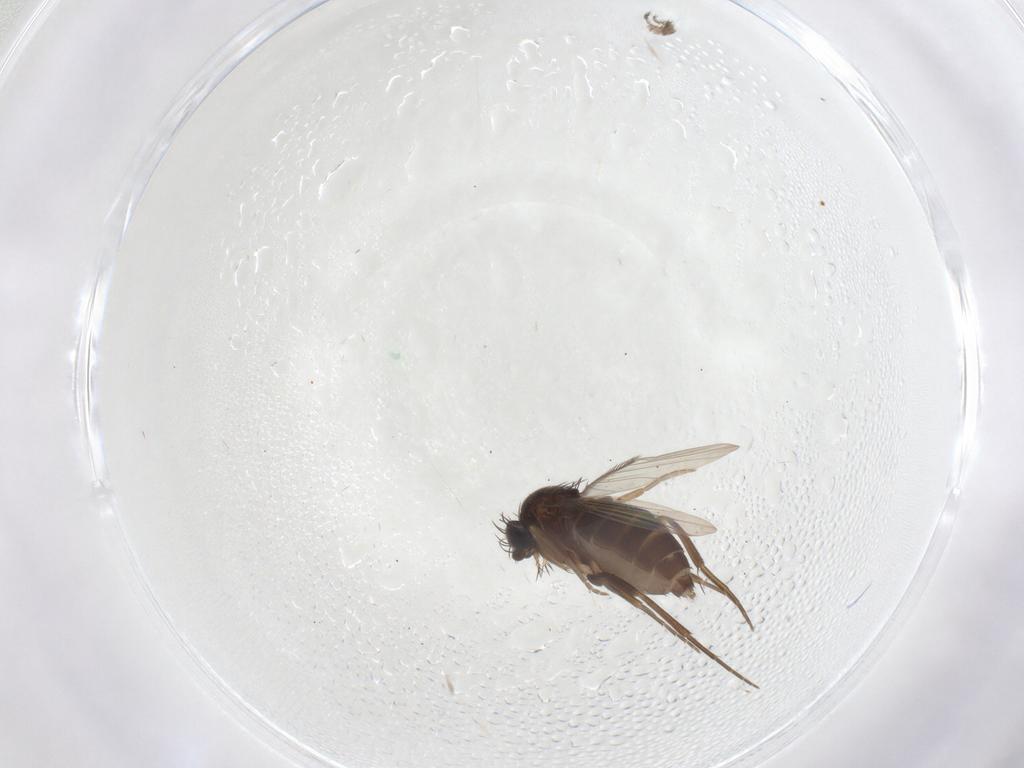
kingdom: Animalia
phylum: Arthropoda
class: Insecta
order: Diptera
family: Phoridae
